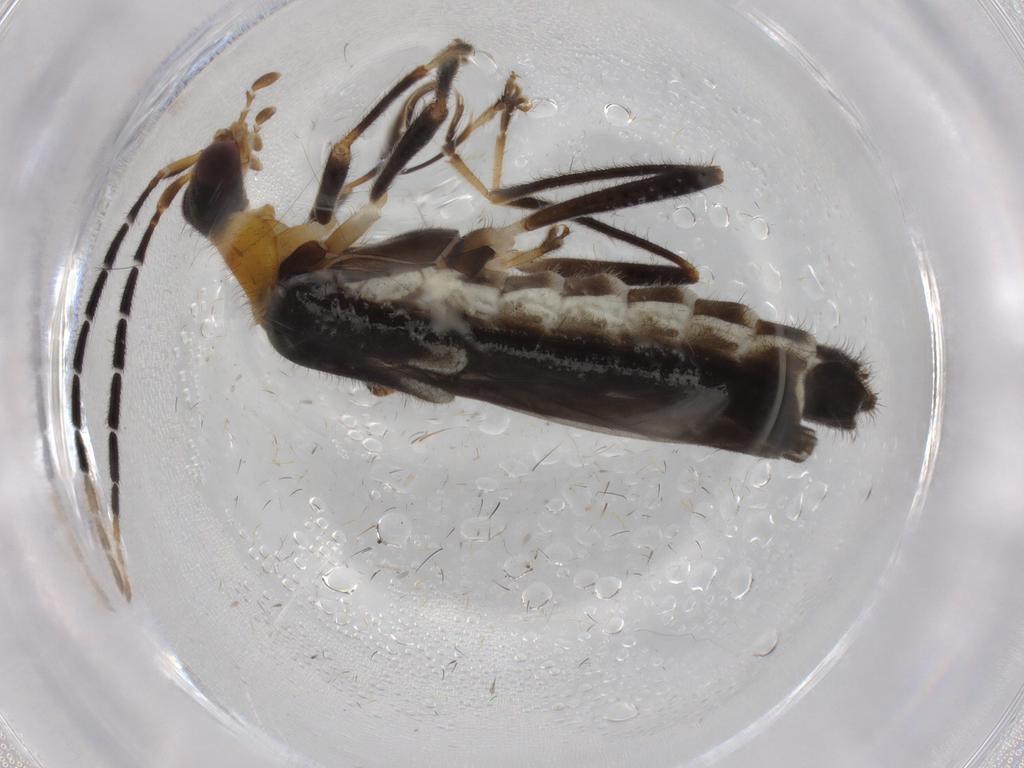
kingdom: Animalia
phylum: Arthropoda
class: Insecta
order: Coleoptera
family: Cantharidae
